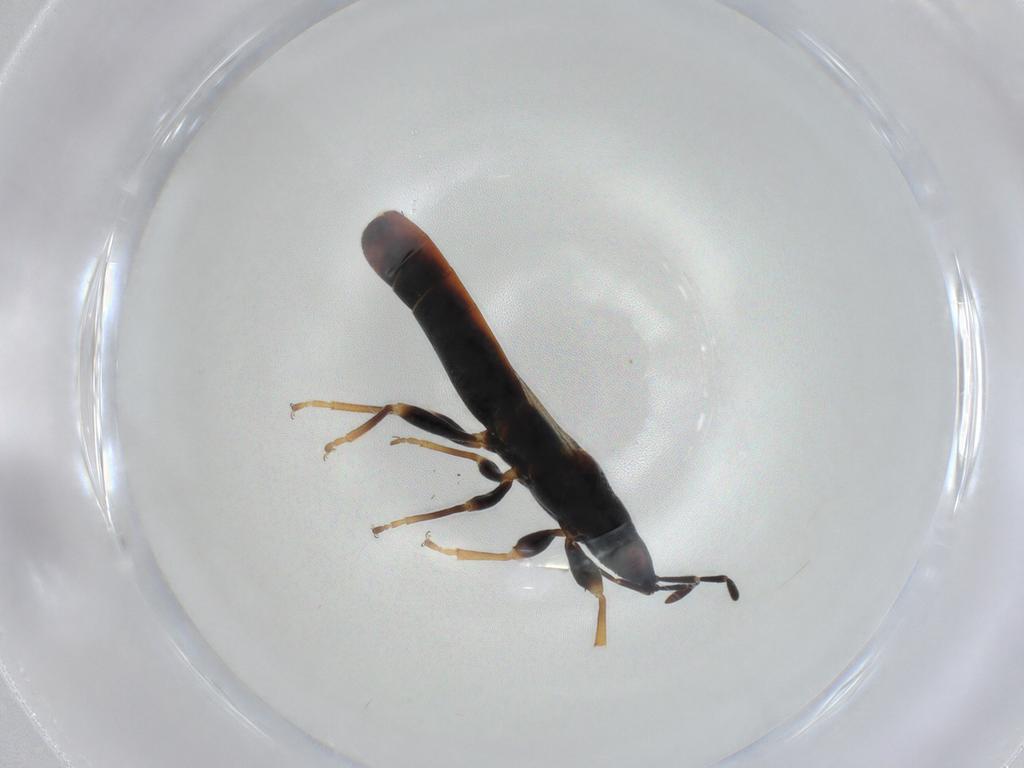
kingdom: Animalia
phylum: Arthropoda
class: Insecta
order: Hemiptera
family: Blissidae
